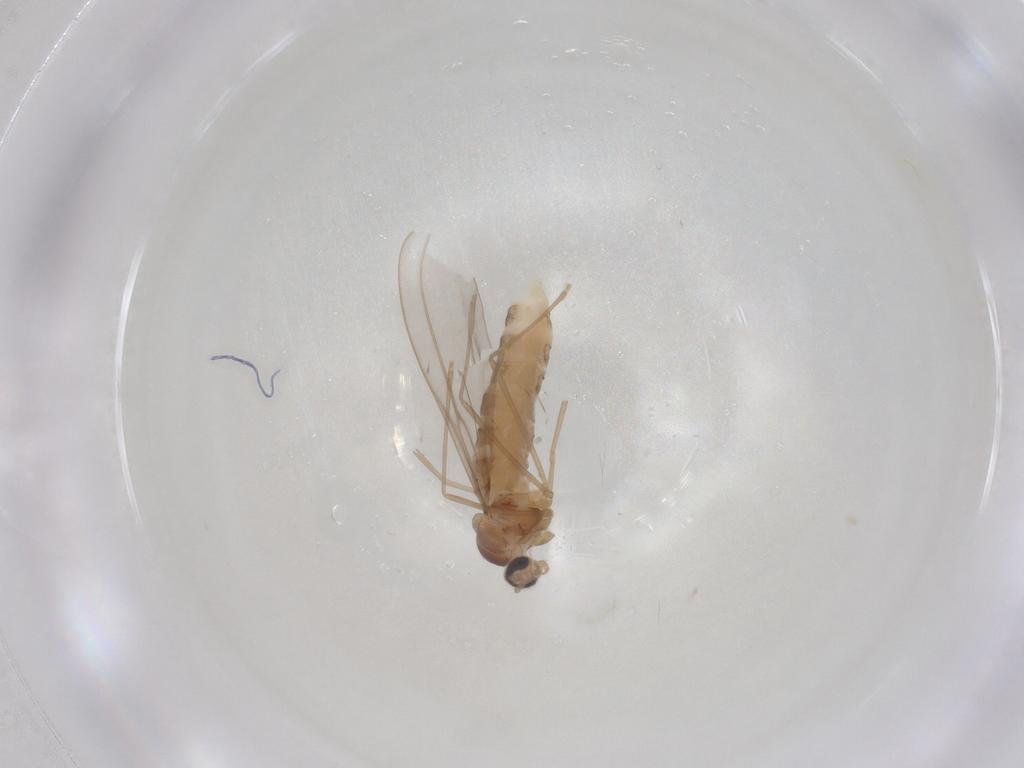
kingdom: Animalia
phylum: Arthropoda
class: Insecta
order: Diptera
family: Cecidomyiidae
